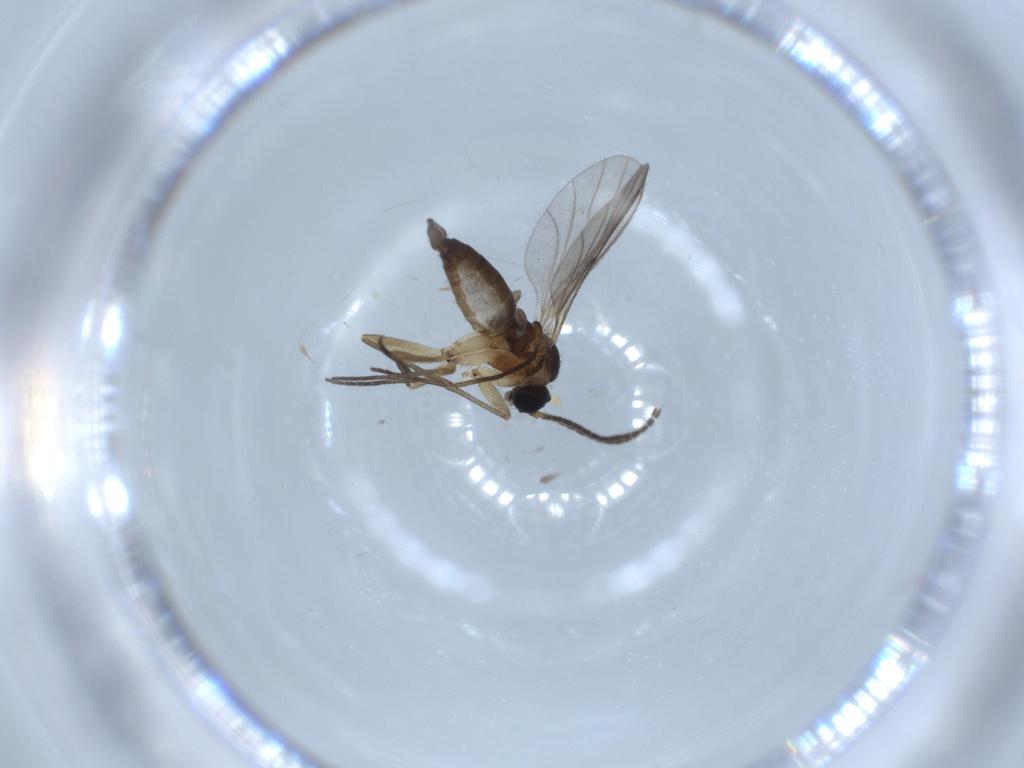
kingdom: Animalia
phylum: Arthropoda
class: Insecta
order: Diptera
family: Sciaridae
